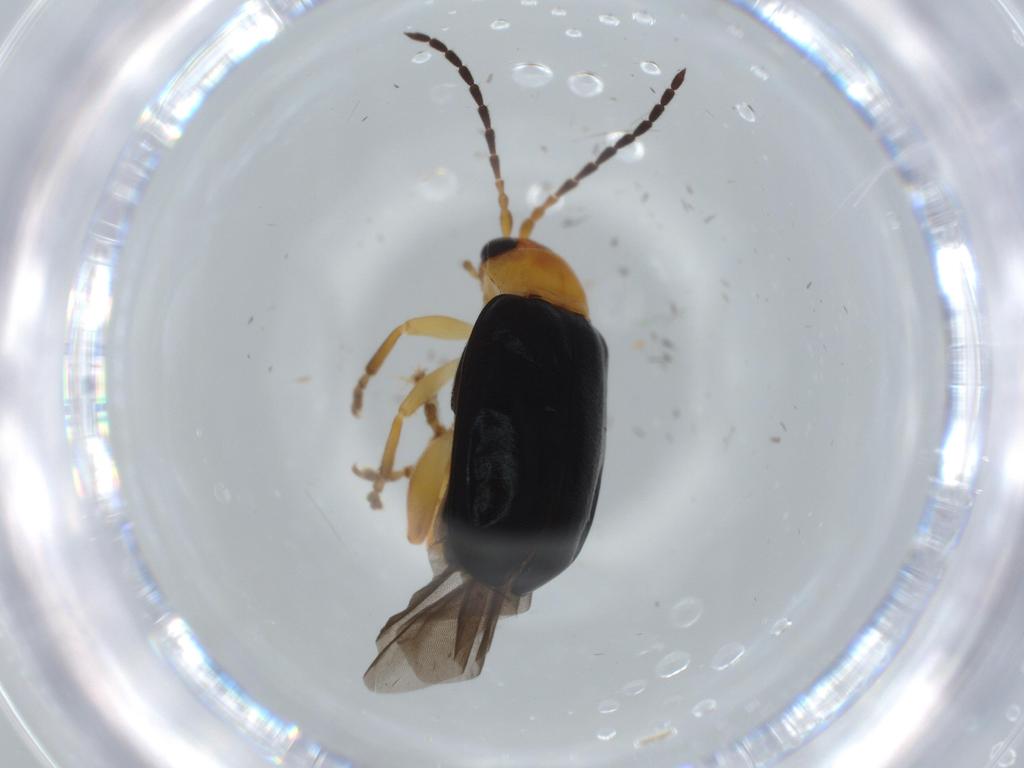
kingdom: Animalia
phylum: Arthropoda
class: Insecta
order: Coleoptera
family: Chrysomelidae
